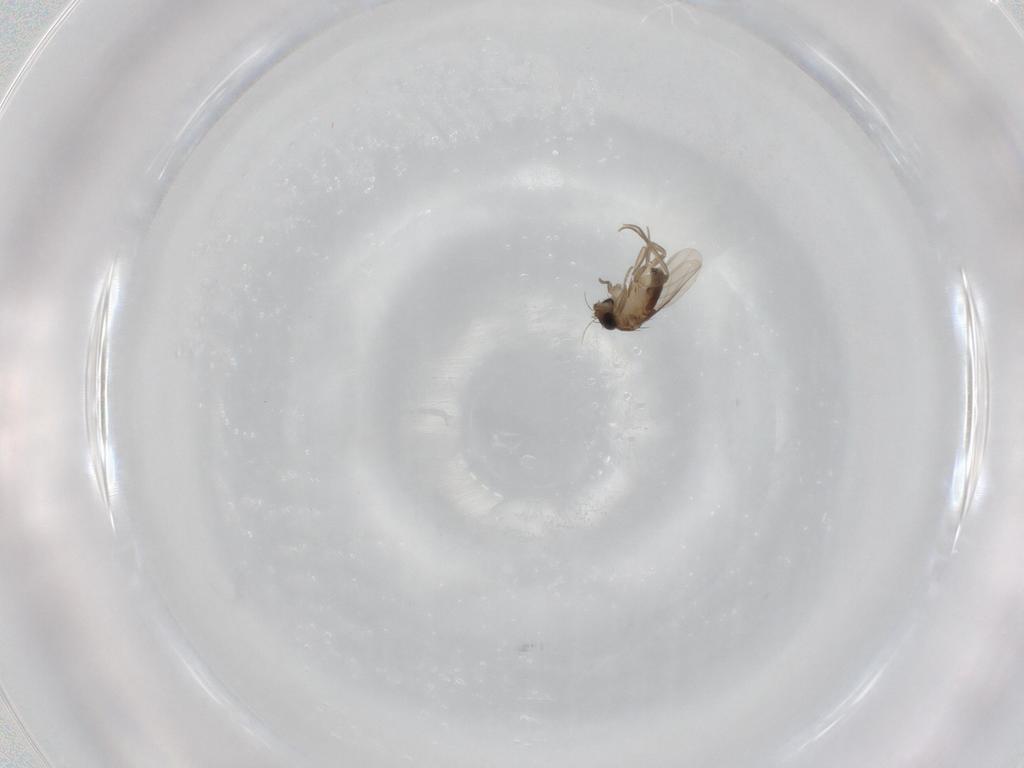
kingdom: Animalia
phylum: Arthropoda
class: Insecta
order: Diptera
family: Phoridae
